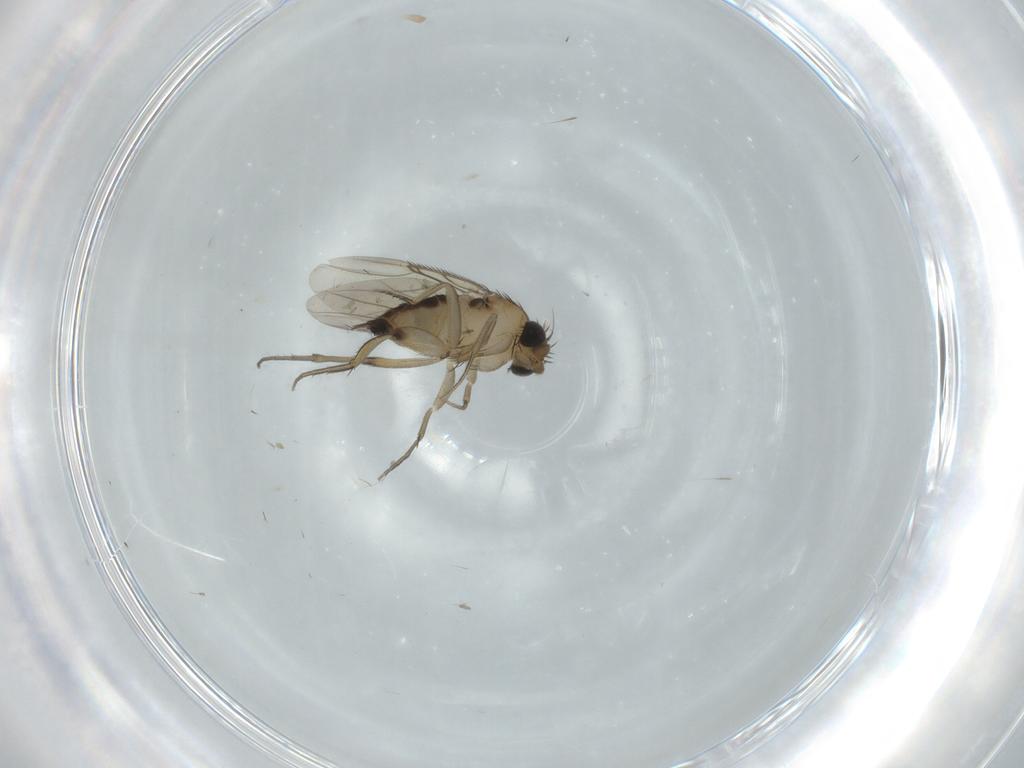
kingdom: Animalia
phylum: Arthropoda
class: Insecta
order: Diptera
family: Phoridae
